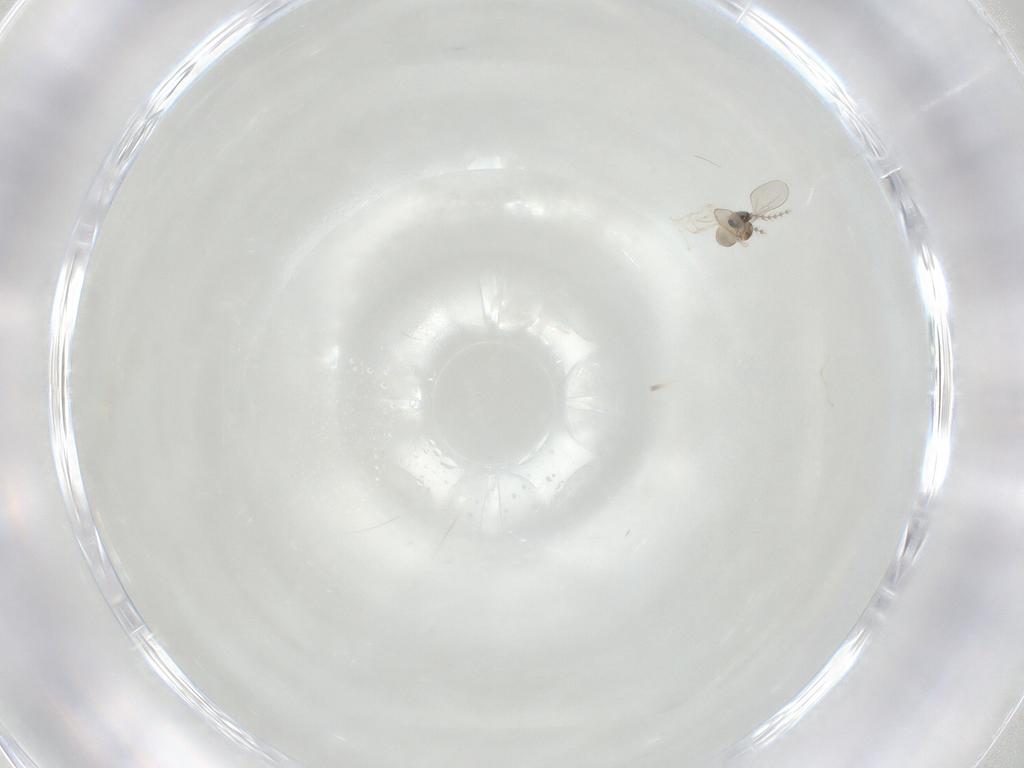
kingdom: Animalia
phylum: Arthropoda
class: Insecta
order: Diptera
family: Cecidomyiidae
